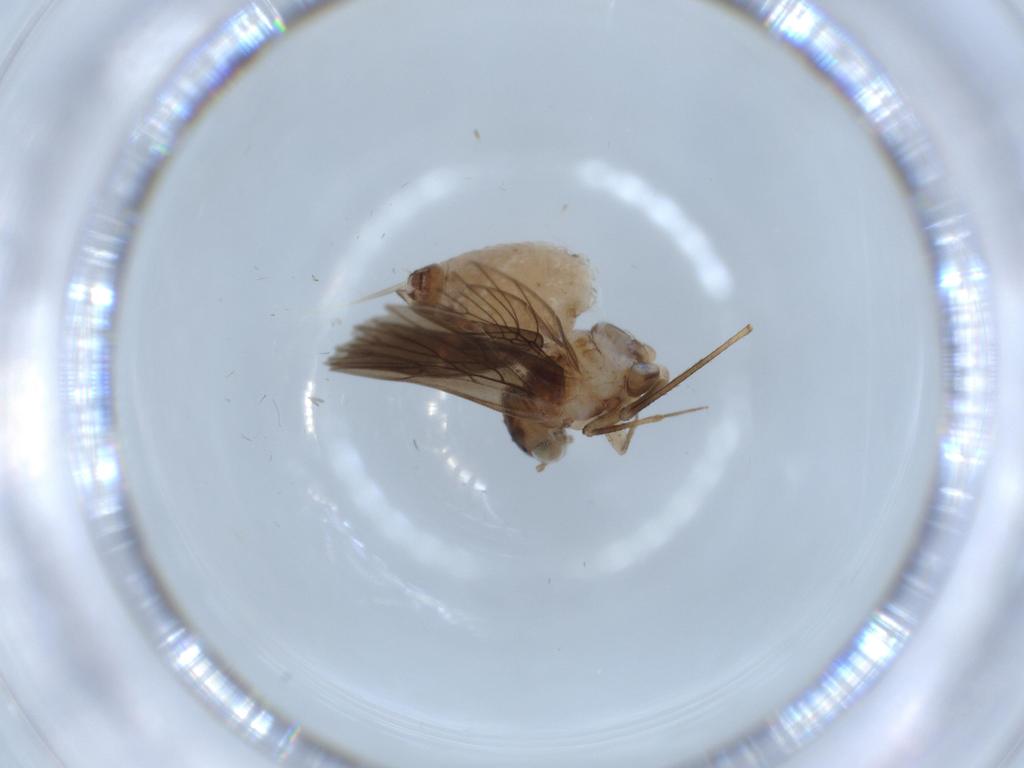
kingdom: Animalia
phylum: Arthropoda
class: Insecta
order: Psocodea
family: Lepidopsocidae
